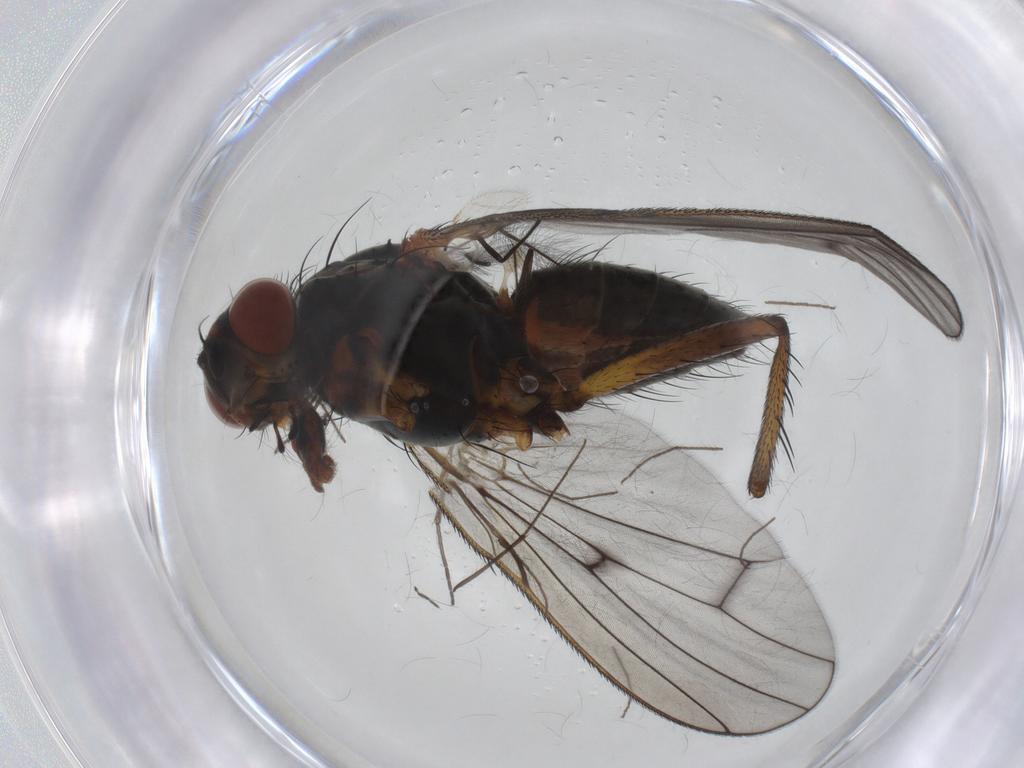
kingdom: Animalia
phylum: Arthropoda
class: Insecta
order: Diptera
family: Anthomyiidae
